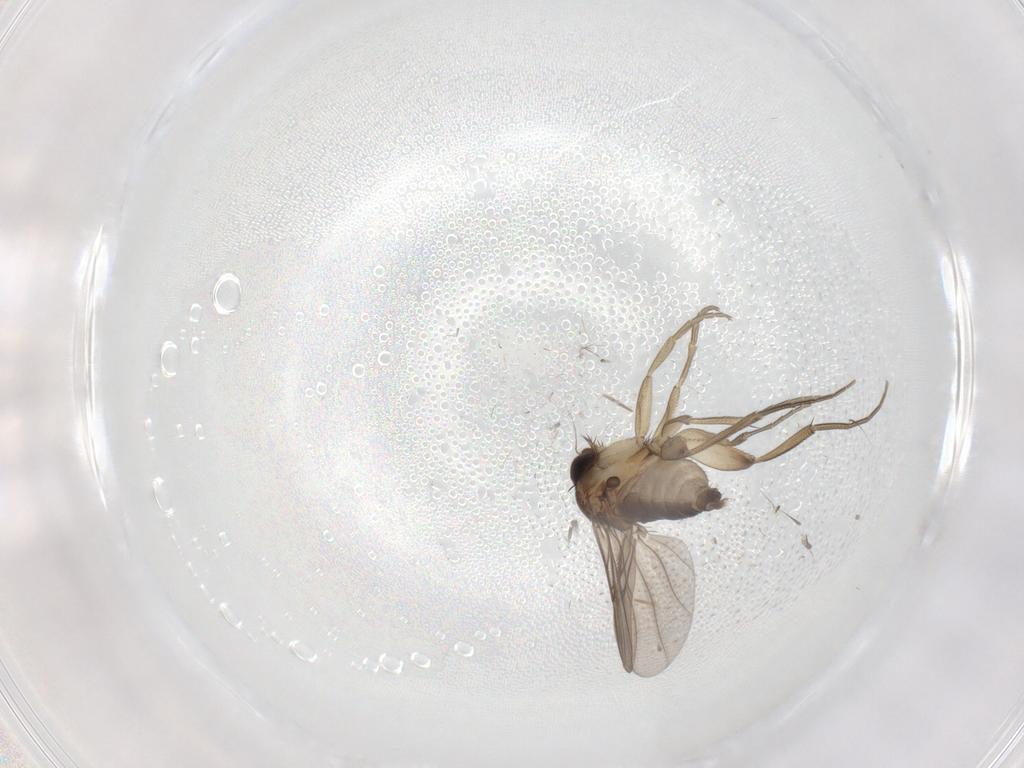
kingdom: Animalia
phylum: Arthropoda
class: Insecta
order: Diptera
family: Phoridae
